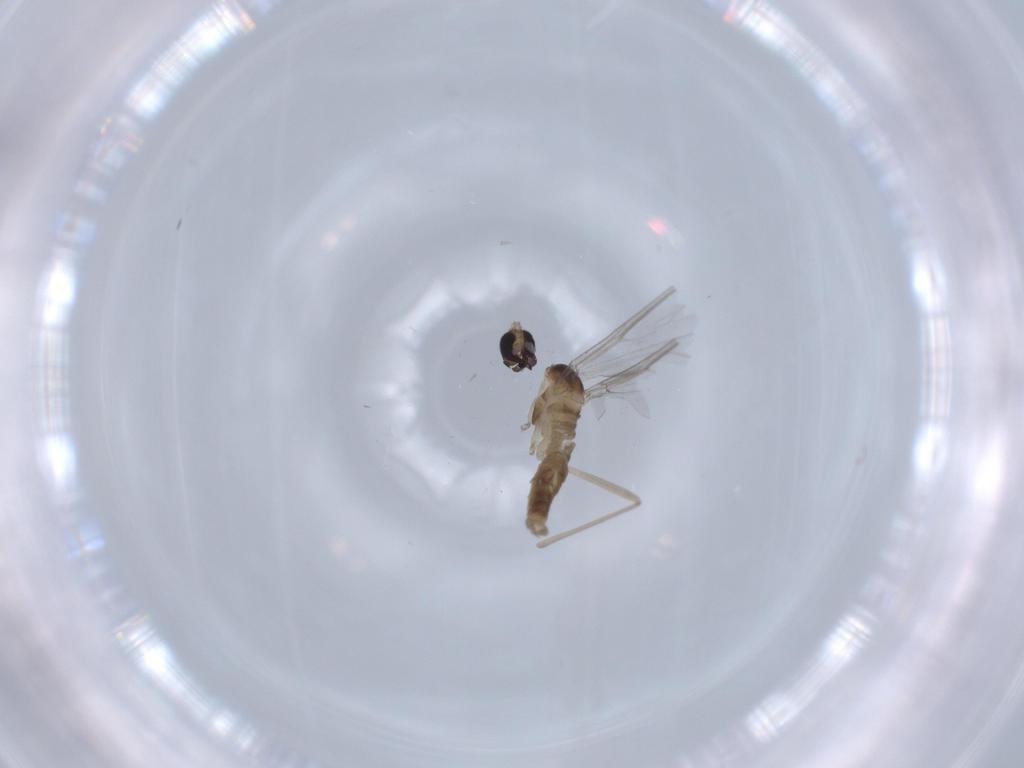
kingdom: Animalia
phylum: Arthropoda
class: Insecta
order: Diptera
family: Cecidomyiidae
